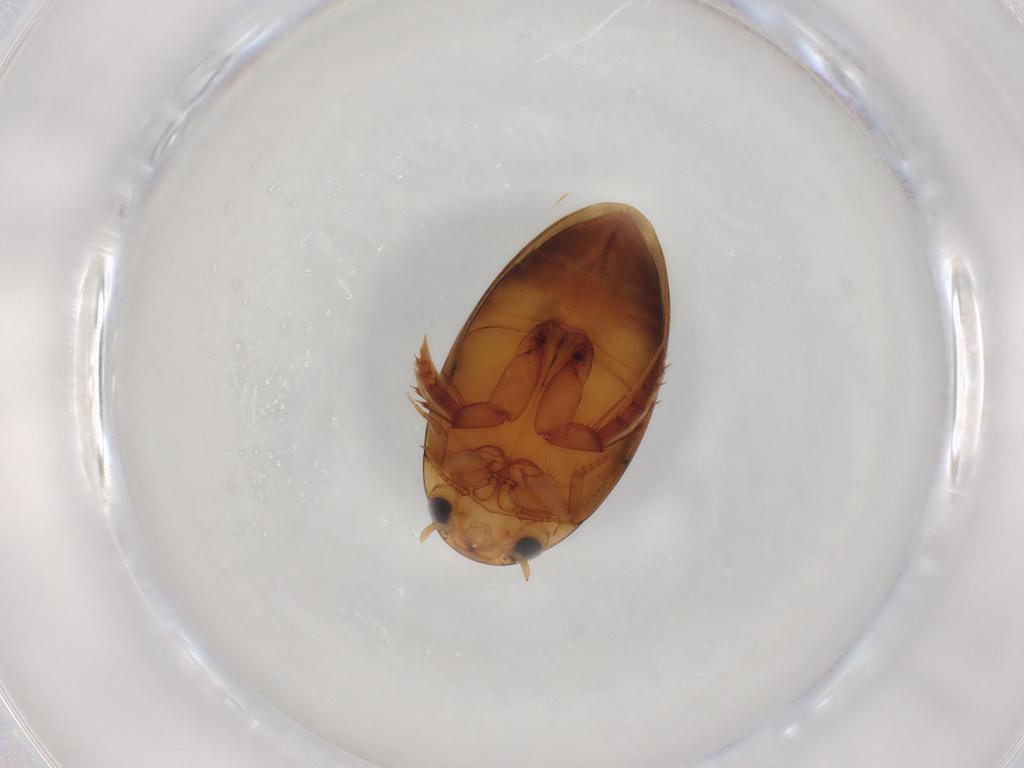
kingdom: Animalia
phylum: Arthropoda
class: Insecta
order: Coleoptera
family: Dytiscidae
